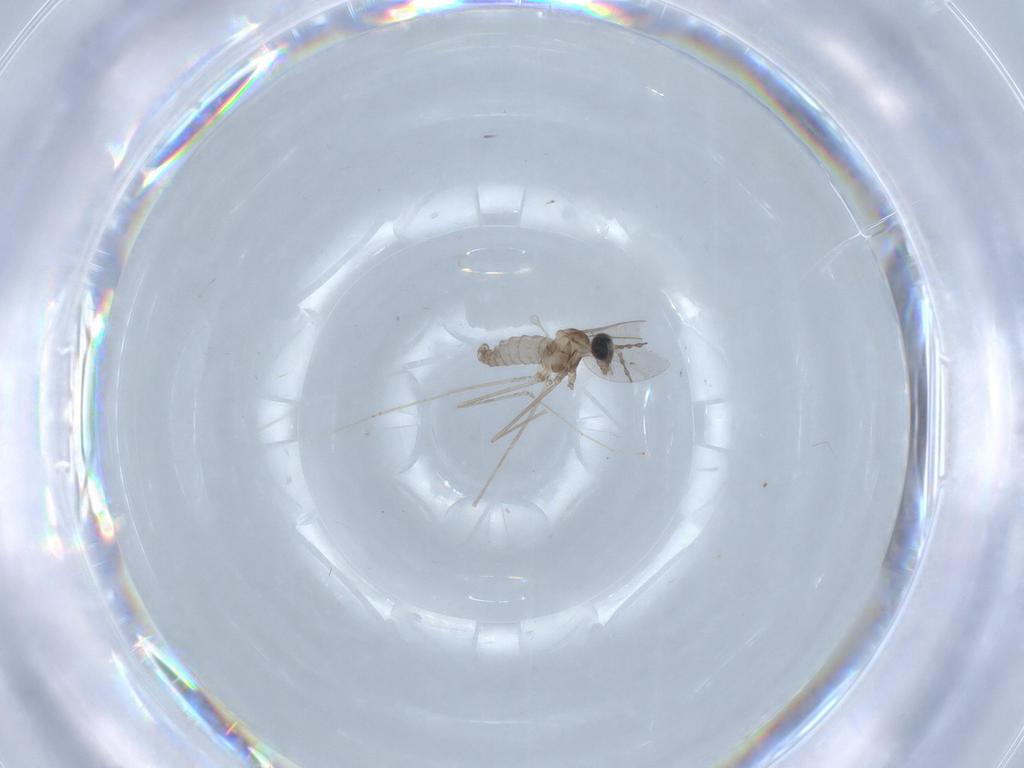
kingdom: Animalia
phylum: Arthropoda
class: Insecta
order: Diptera
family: Cecidomyiidae
